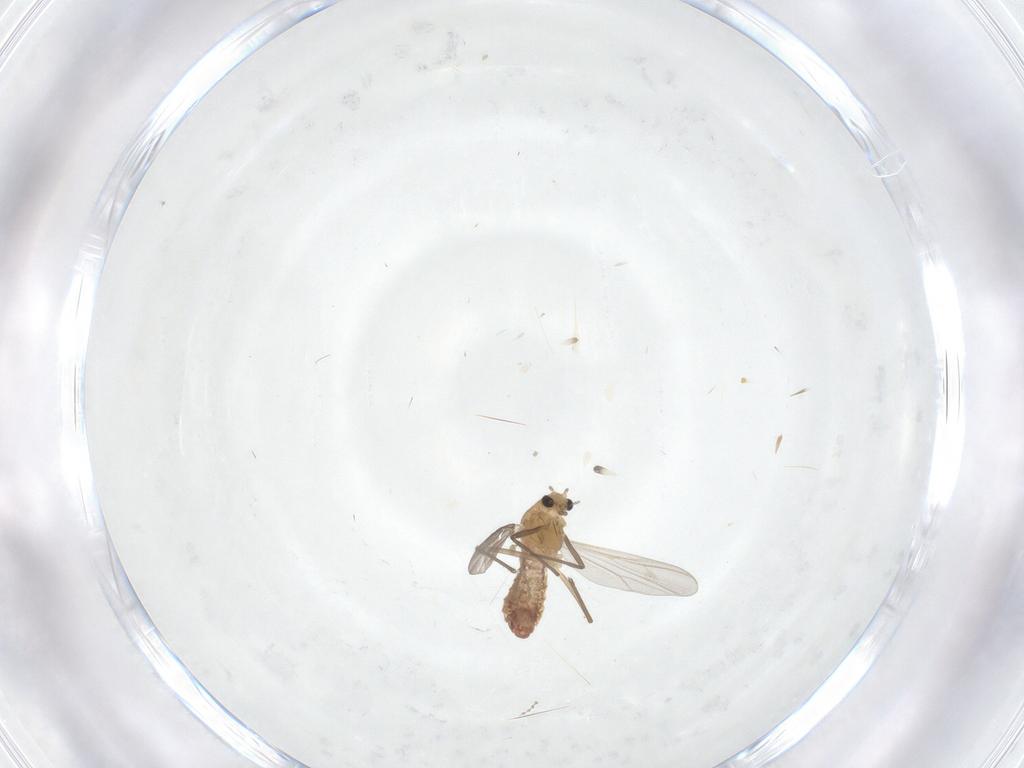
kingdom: Animalia
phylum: Arthropoda
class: Insecta
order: Diptera
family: Chironomidae
